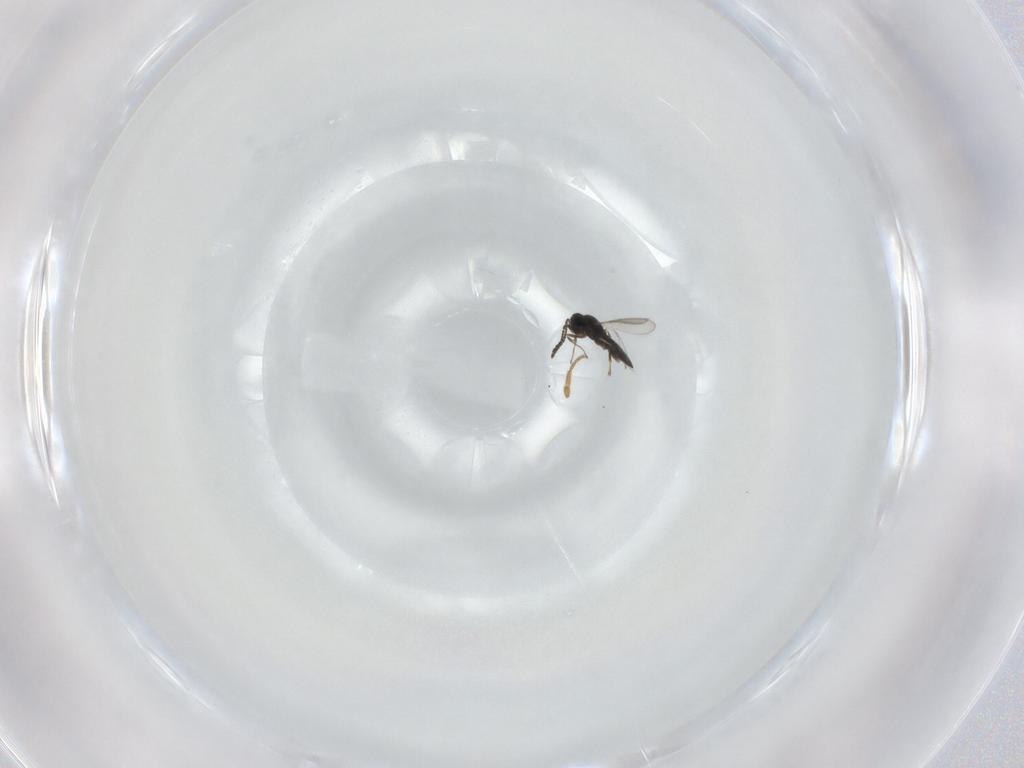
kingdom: Animalia
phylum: Arthropoda
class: Insecta
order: Hymenoptera
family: Scelionidae
